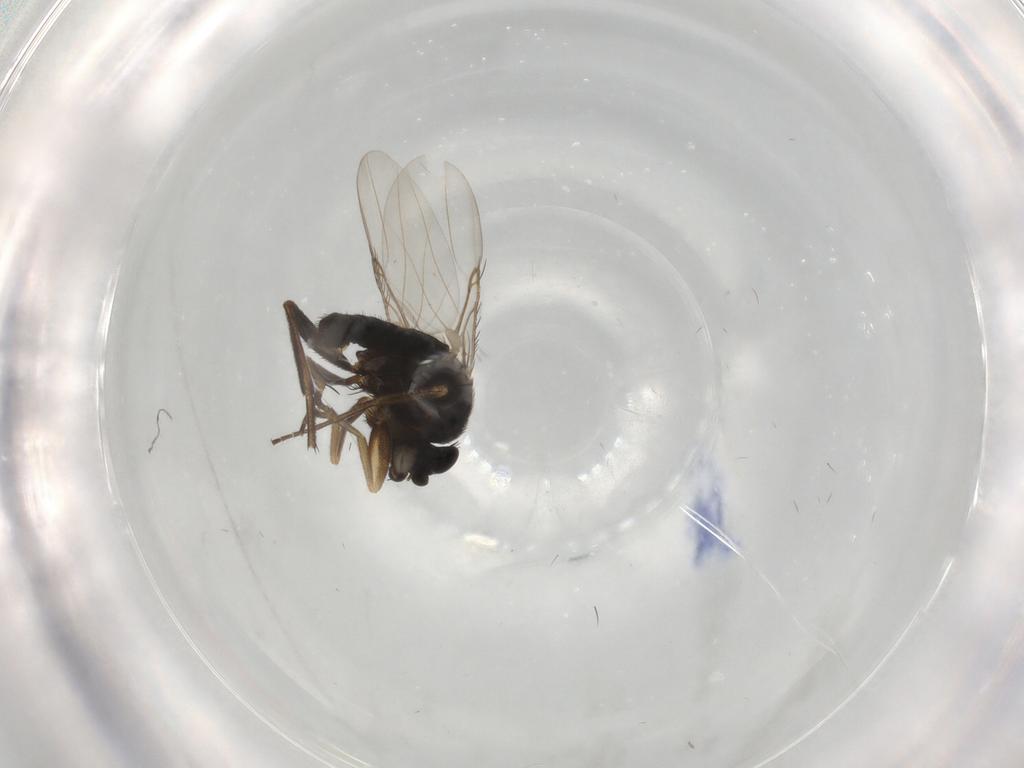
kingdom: Animalia
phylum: Arthropoda
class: Insecta
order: Diptera
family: Phoridae
